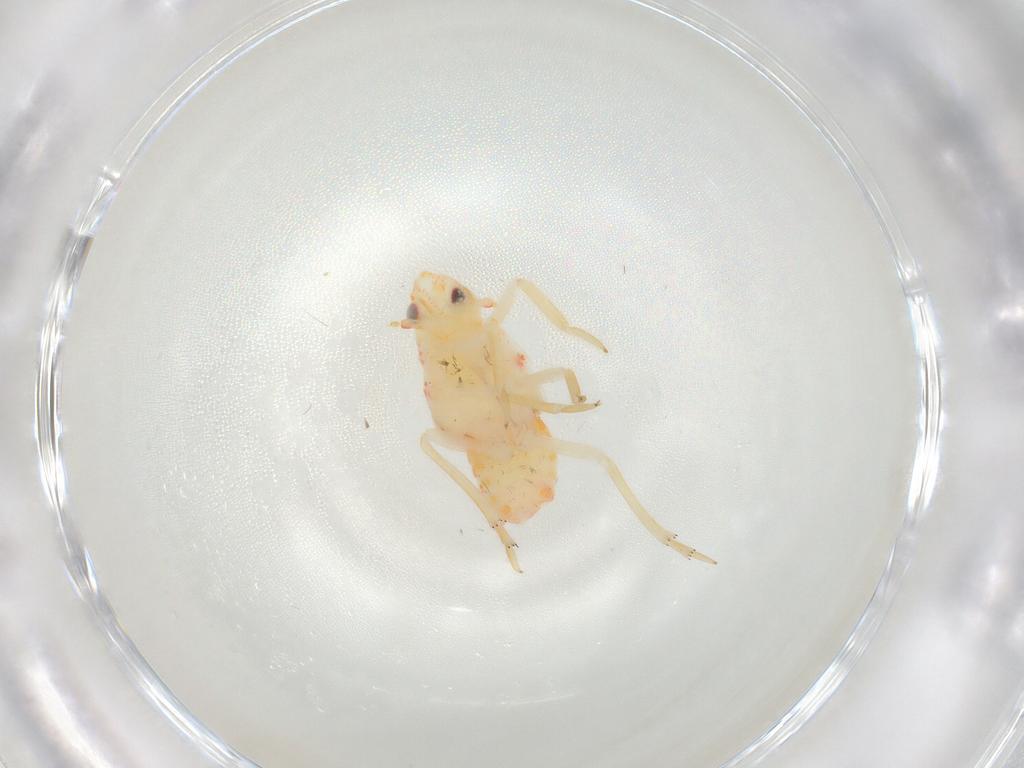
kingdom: Animalia
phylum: Arthropoda
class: Insecta
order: Hemiptera
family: Flatidae
